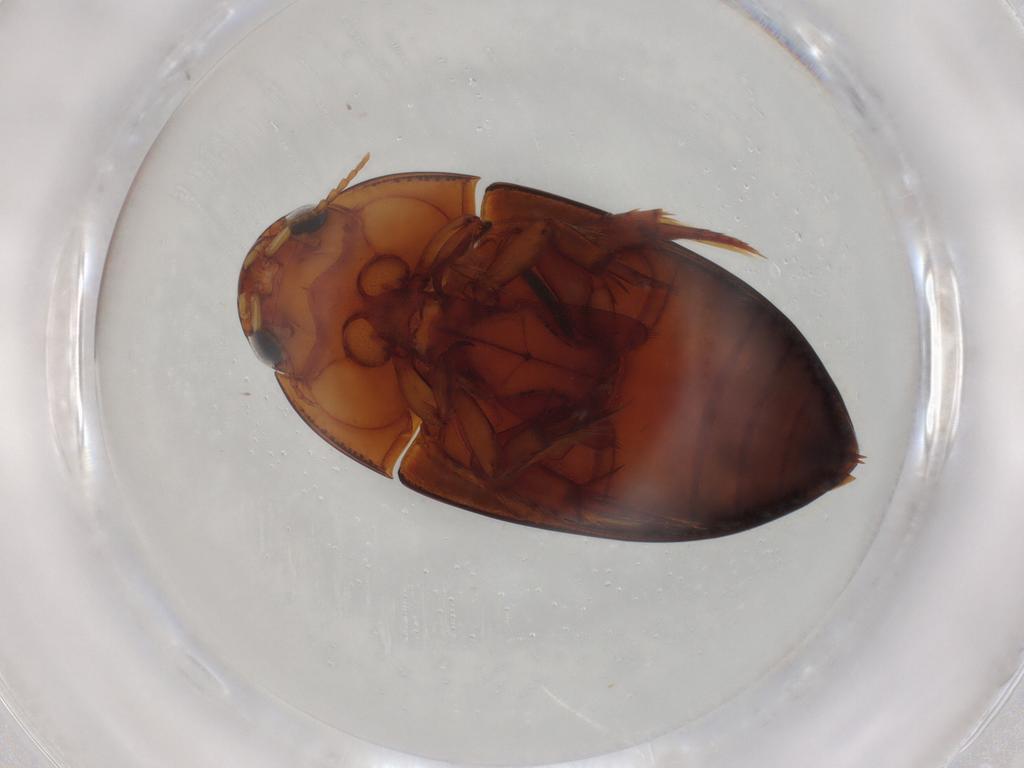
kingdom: Animalia
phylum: Arthropoda
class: Insecta
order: Coleoptera
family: Noteridae
